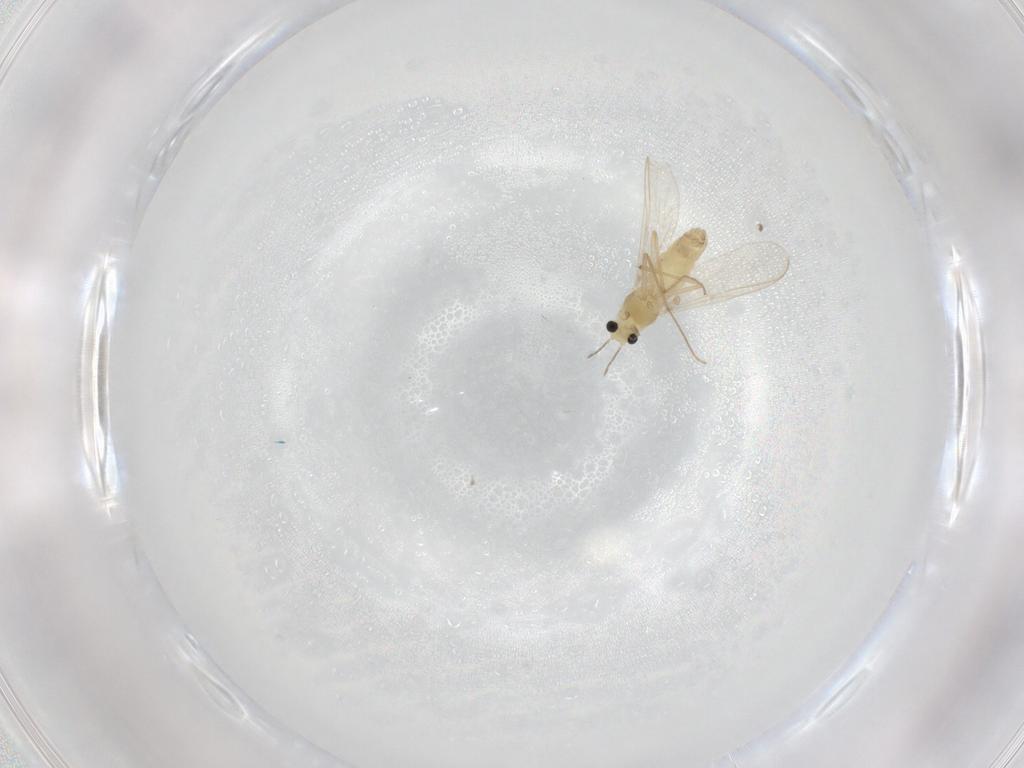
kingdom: Animalia
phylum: Arthropoda
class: Insecta
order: Diptera
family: Chironomidae
